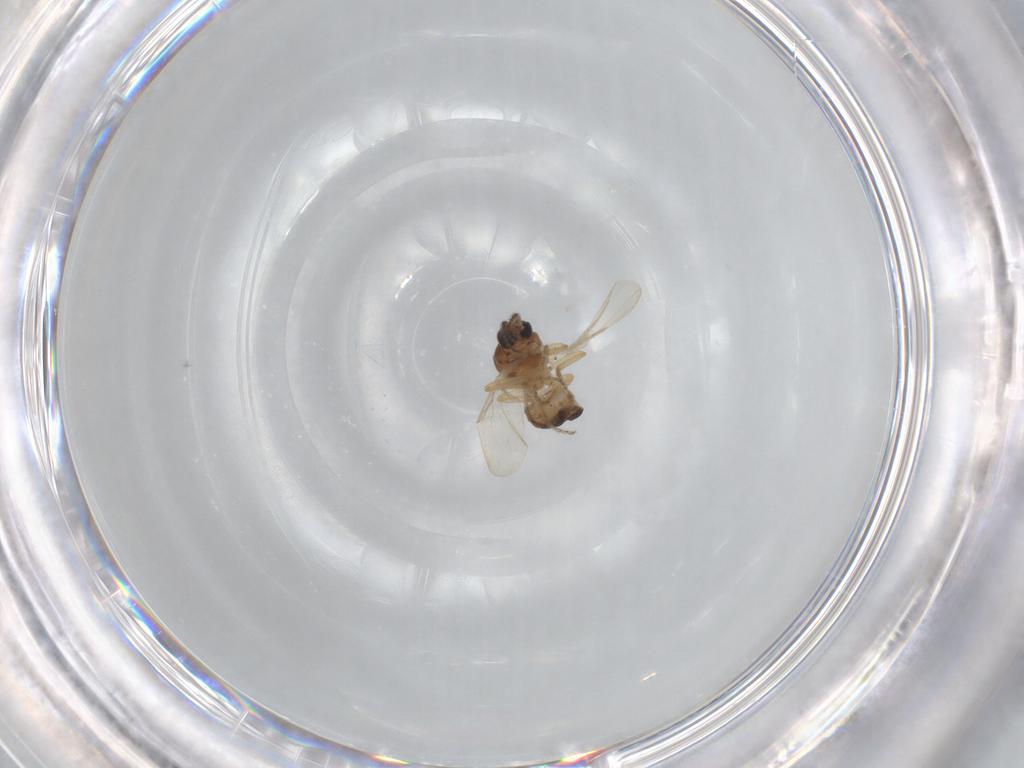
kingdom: Animalia
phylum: Arthropoda
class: Insecta
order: Diptera
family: Ceratopogonidae
